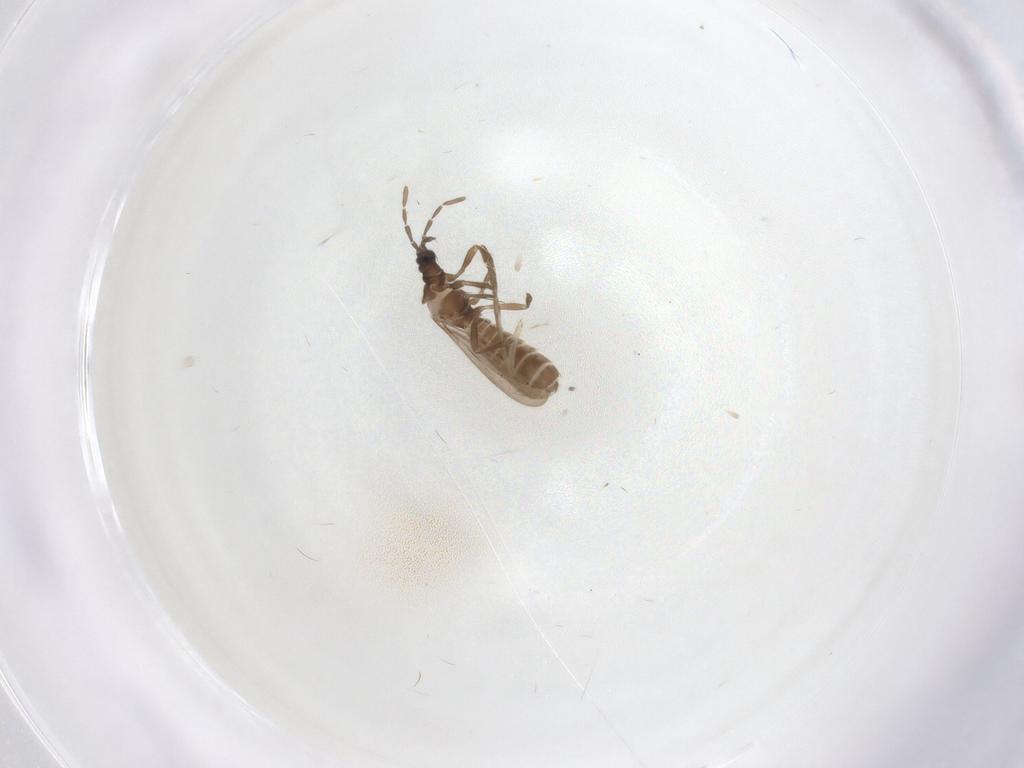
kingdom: Animalia
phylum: Arthropoda
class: Insecta
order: Hemiptera
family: Enicocephalidae
